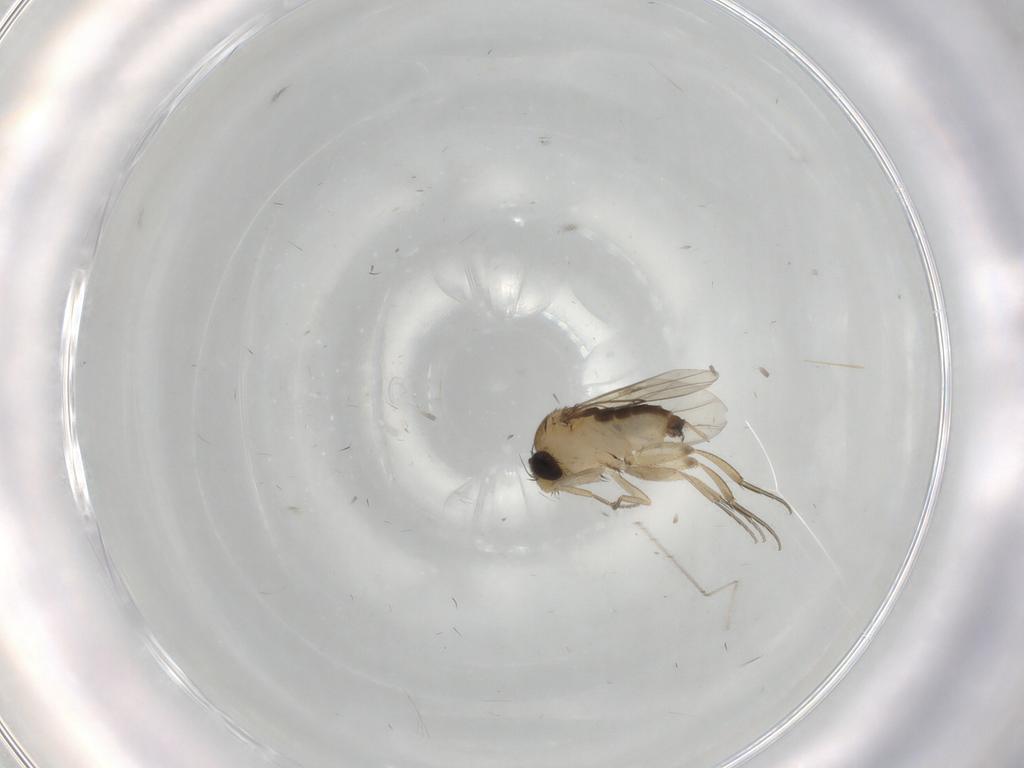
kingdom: Animalia
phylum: Arthropoda
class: Insecta
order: Diptera
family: Phoridae
